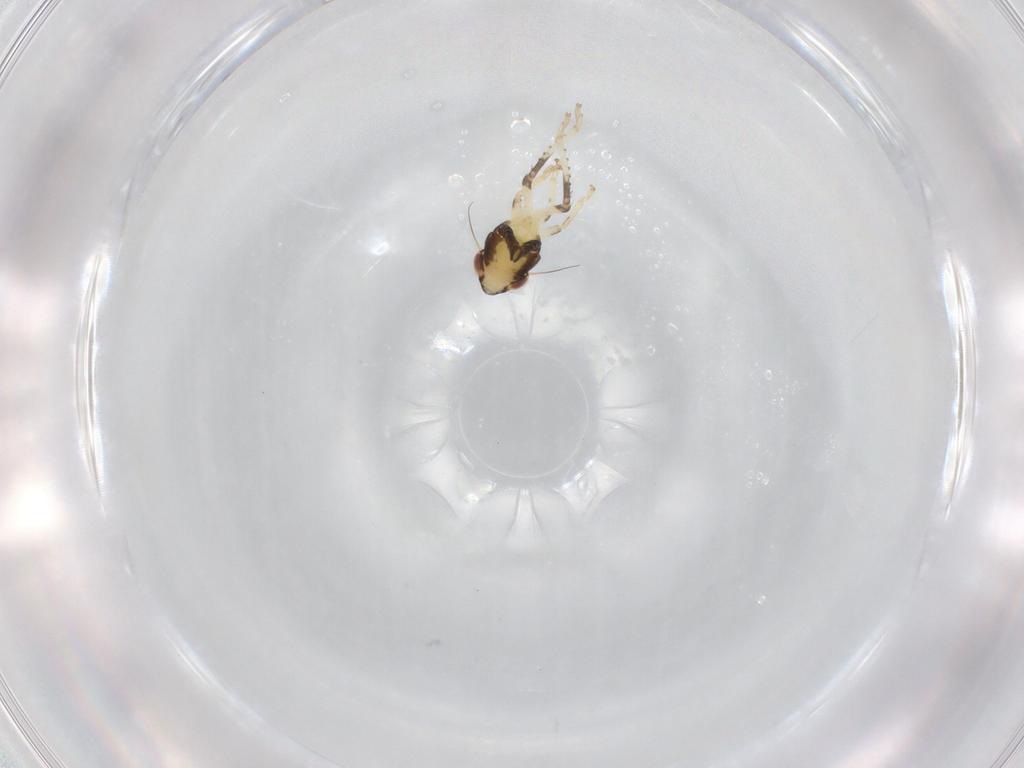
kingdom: Animalia
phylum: Arthropoda
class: Insecta
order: Hemiptera
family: Cicadellidae
